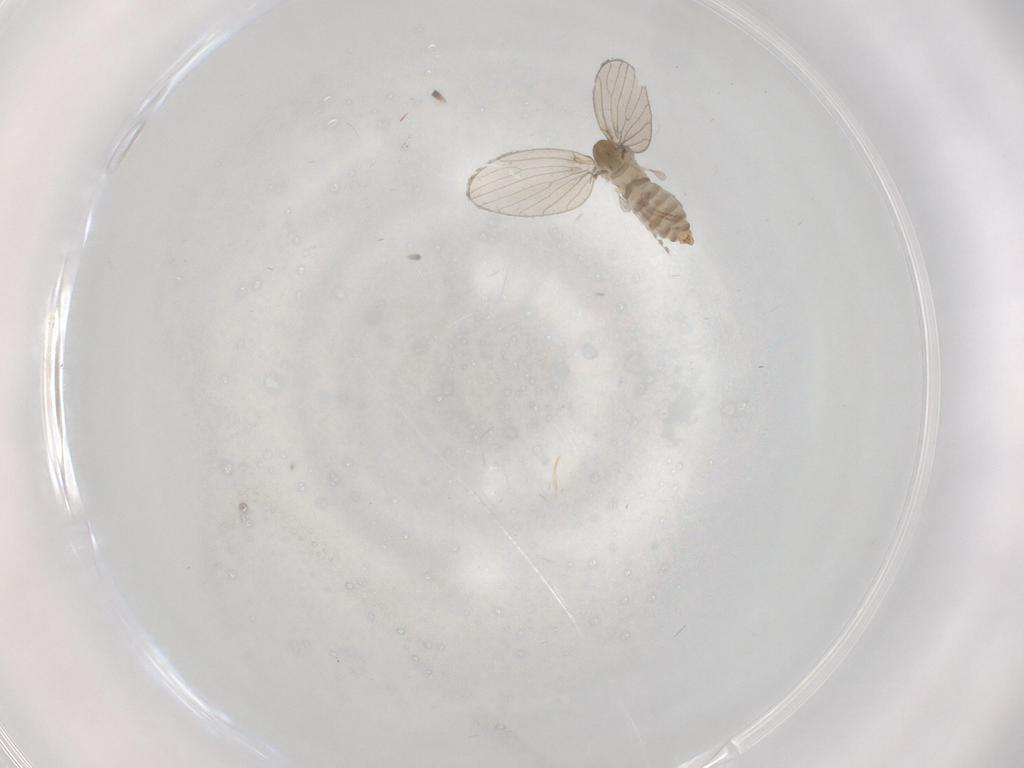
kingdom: Animalia
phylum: Arthropoda
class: Insecta
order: Diptera
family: Psychodidae
